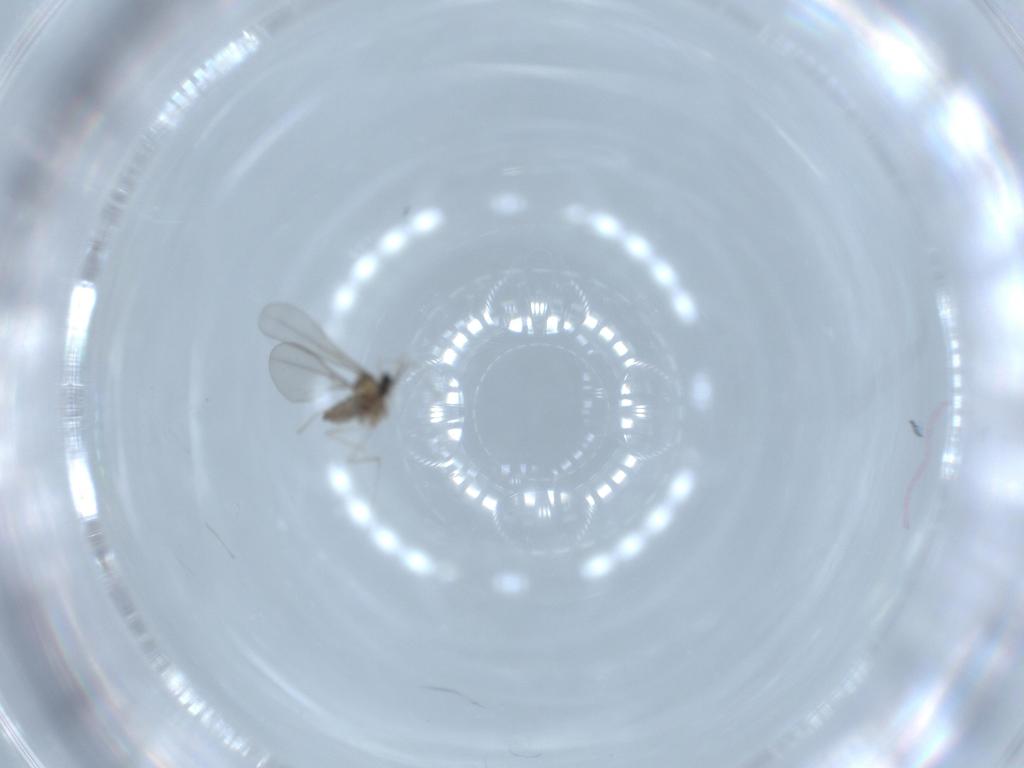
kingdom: Animalia
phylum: Arthropoda
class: Insecta
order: Diptera
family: Cecidomyiidae
